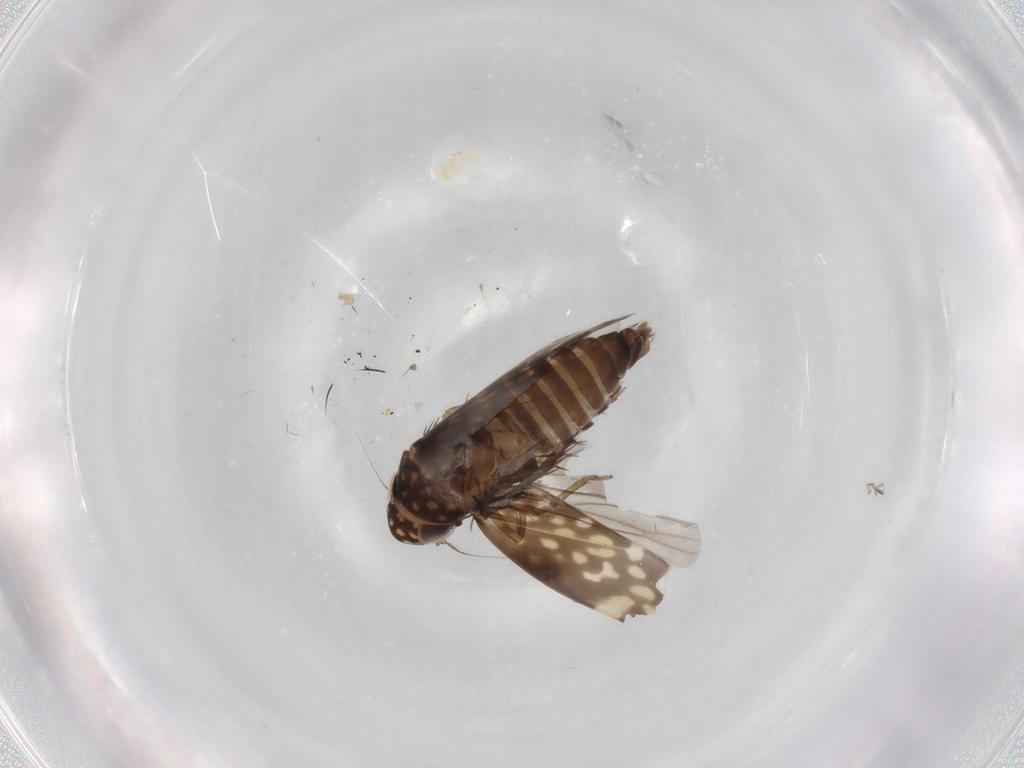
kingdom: Animalia
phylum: Arthropoda
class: Insecta
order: Hemiptera
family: Cicadellidae
